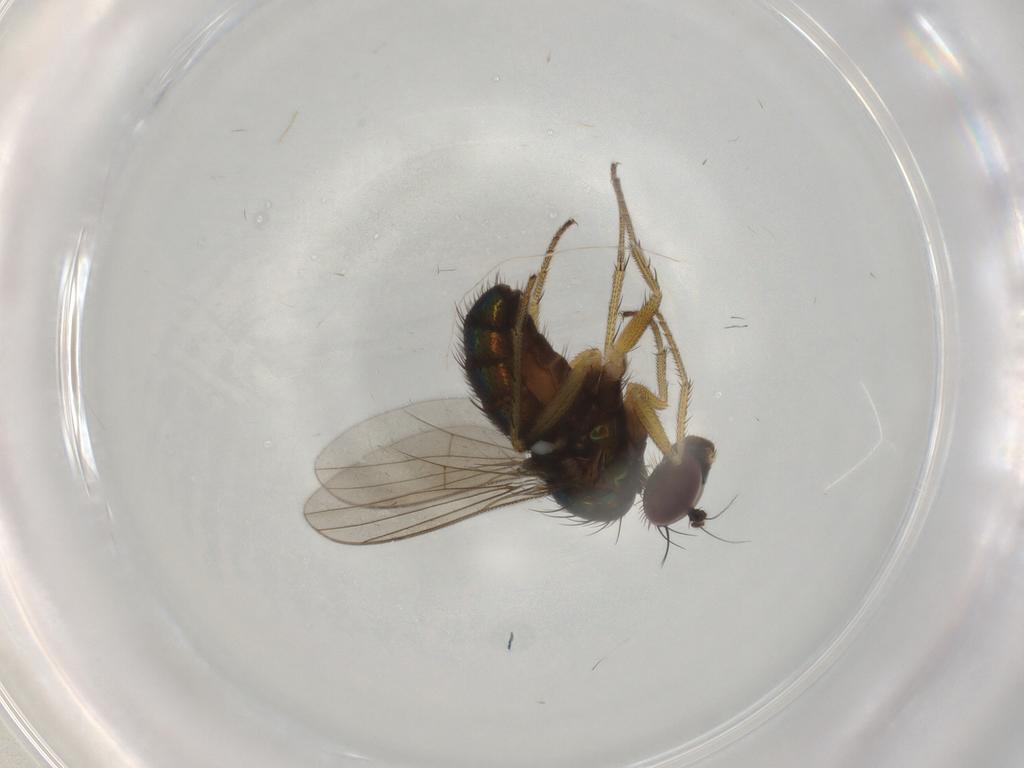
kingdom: Animalia
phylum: Arthropoda
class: Insecta
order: Diptera
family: Dolichopodidae
